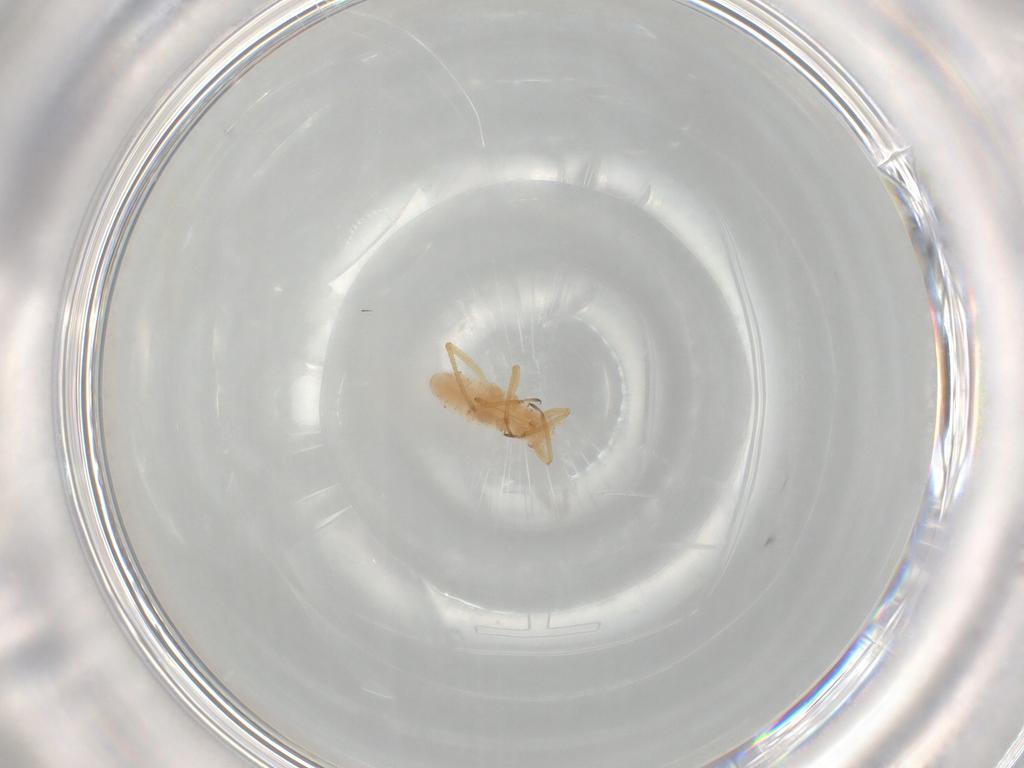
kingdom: Animalia
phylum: Arthropoda
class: Insecta
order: Hemiptera
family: Aphididae
